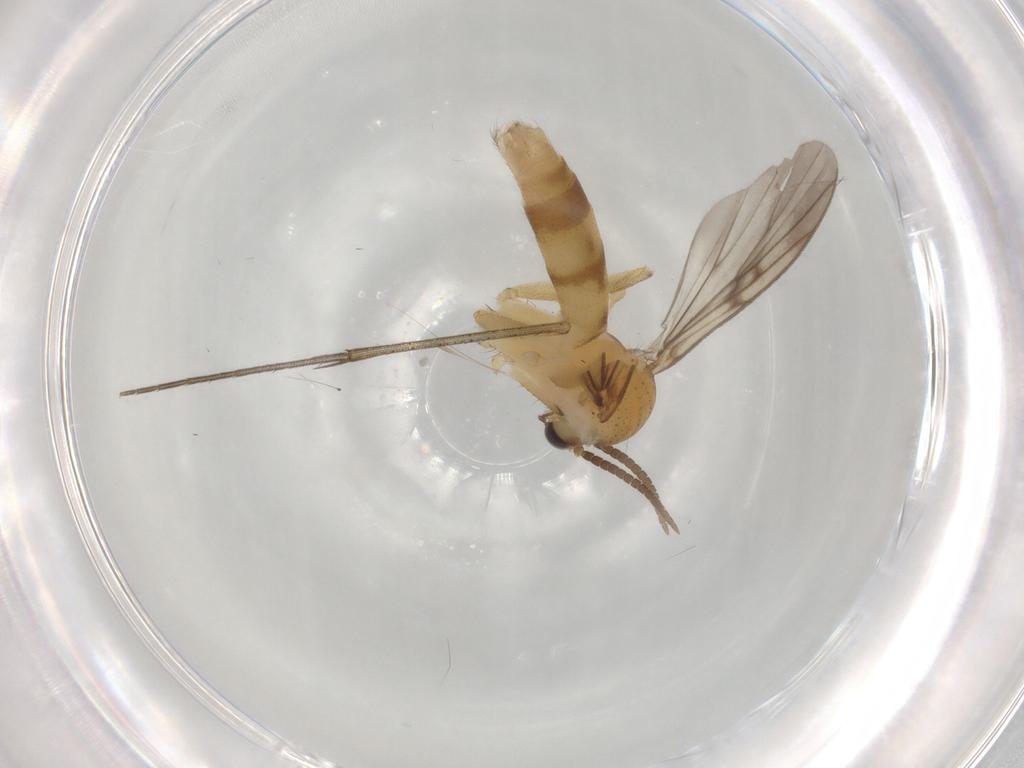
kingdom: Animalia
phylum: Arthropoda
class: Insecta
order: Diptera
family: Mycetophilidae
